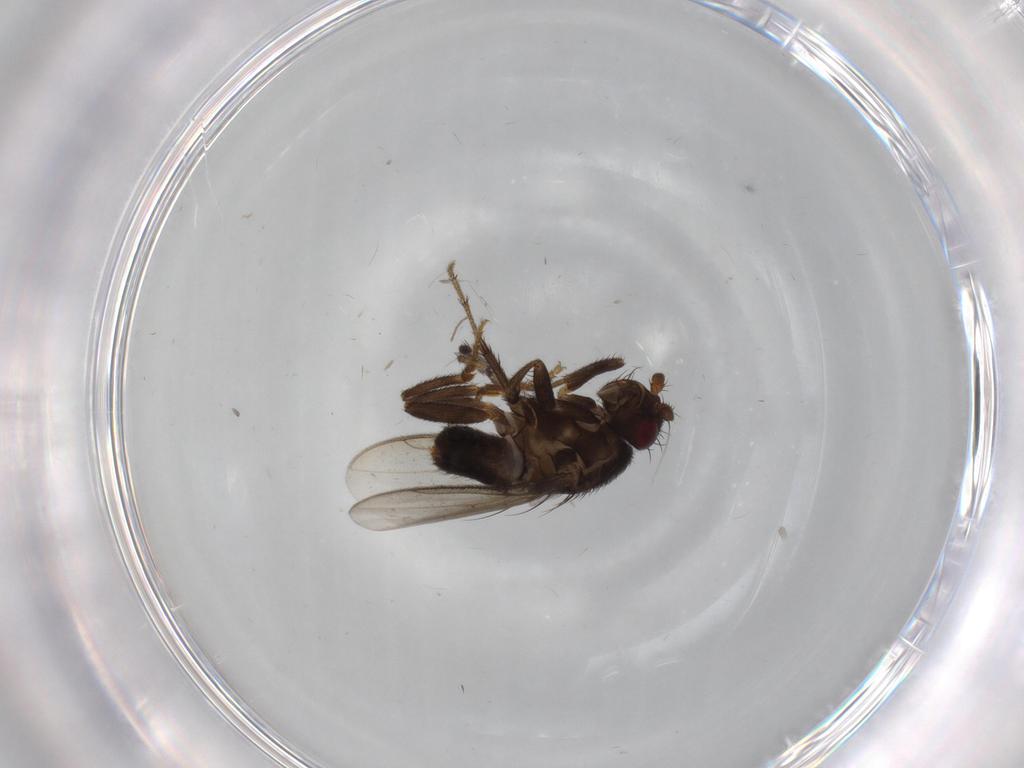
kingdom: Animalia
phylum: Arthropoda
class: Insecta
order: Diptera
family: Sphaeroceridae
